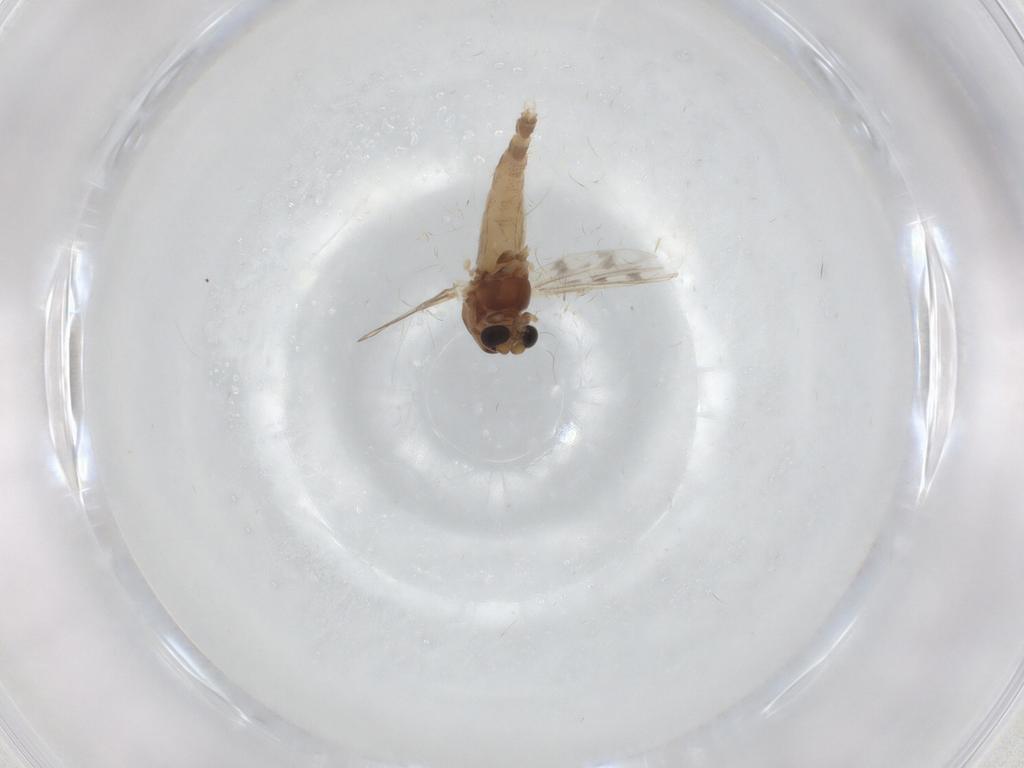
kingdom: Animalia
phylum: Arthropoda
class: Insecta
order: Diptera
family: Chironomidae
